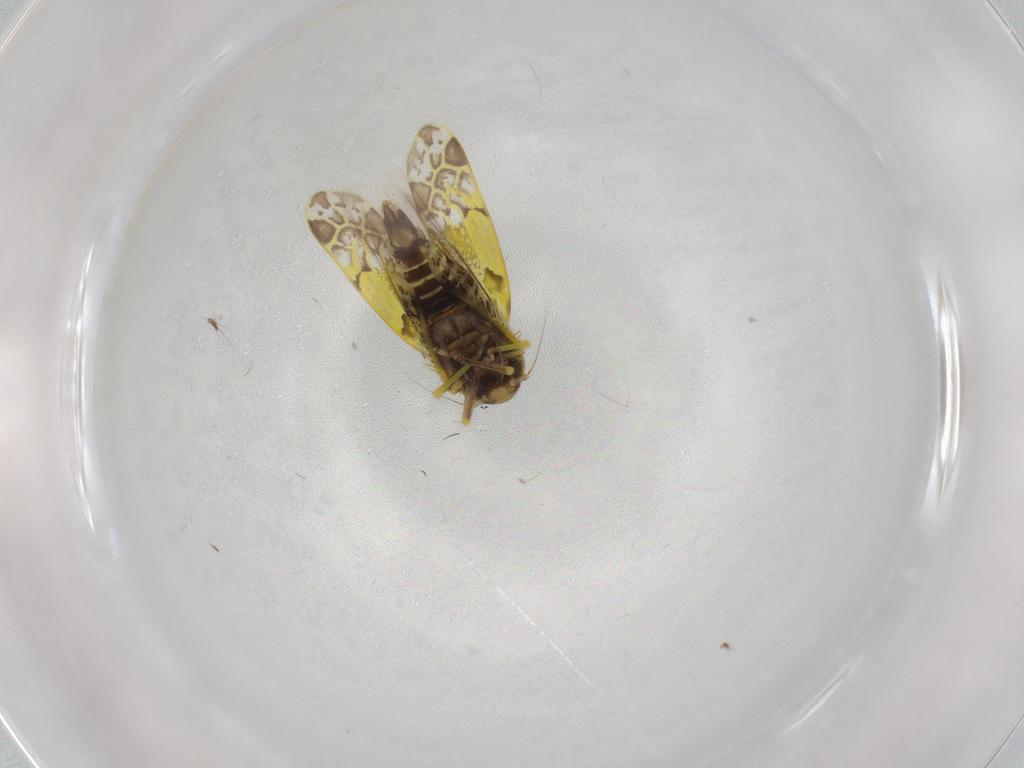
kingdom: Animalia
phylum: Arthropoda
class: Insecta
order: Hemiptera
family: Cicadellidae
